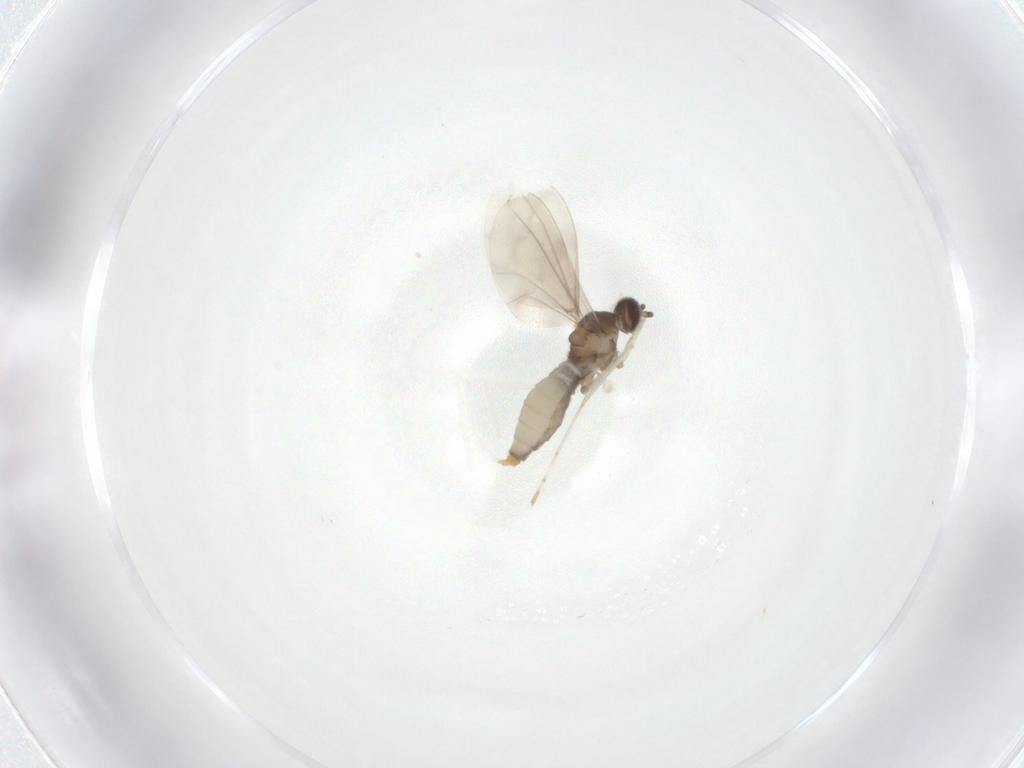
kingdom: Animalia
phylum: Arthropoda
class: Insecta
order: Diptera
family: Cecidomyiidae
